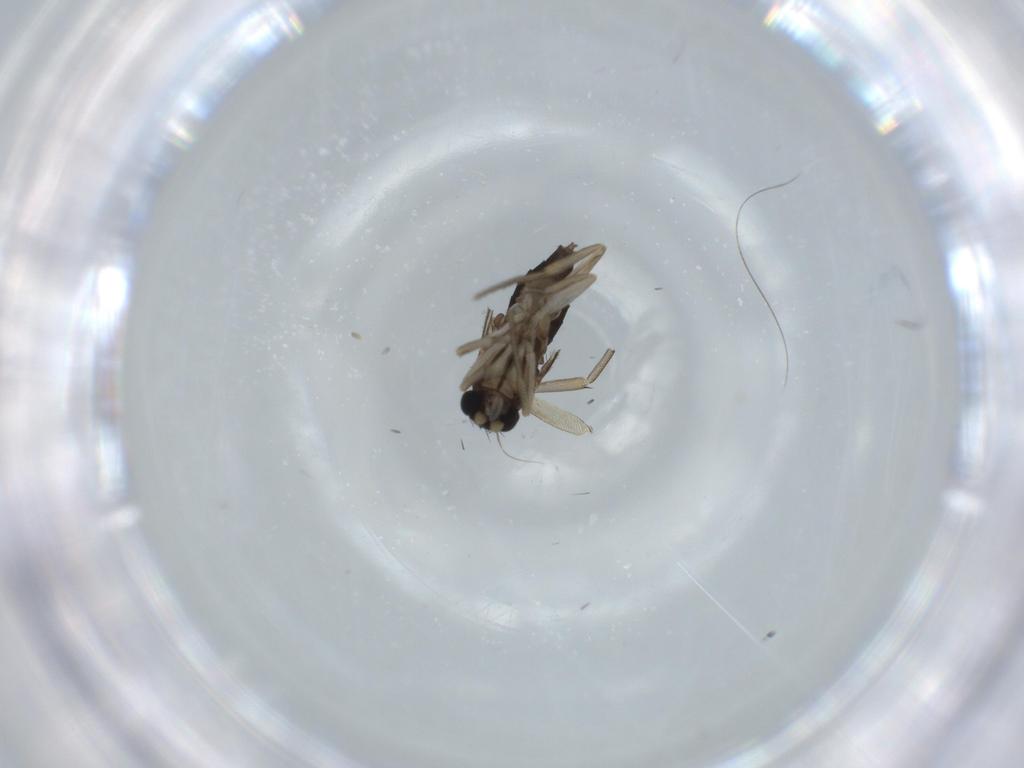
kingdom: Animalia
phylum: Arthropoda
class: Insecta
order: Diptera
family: Phoridae
